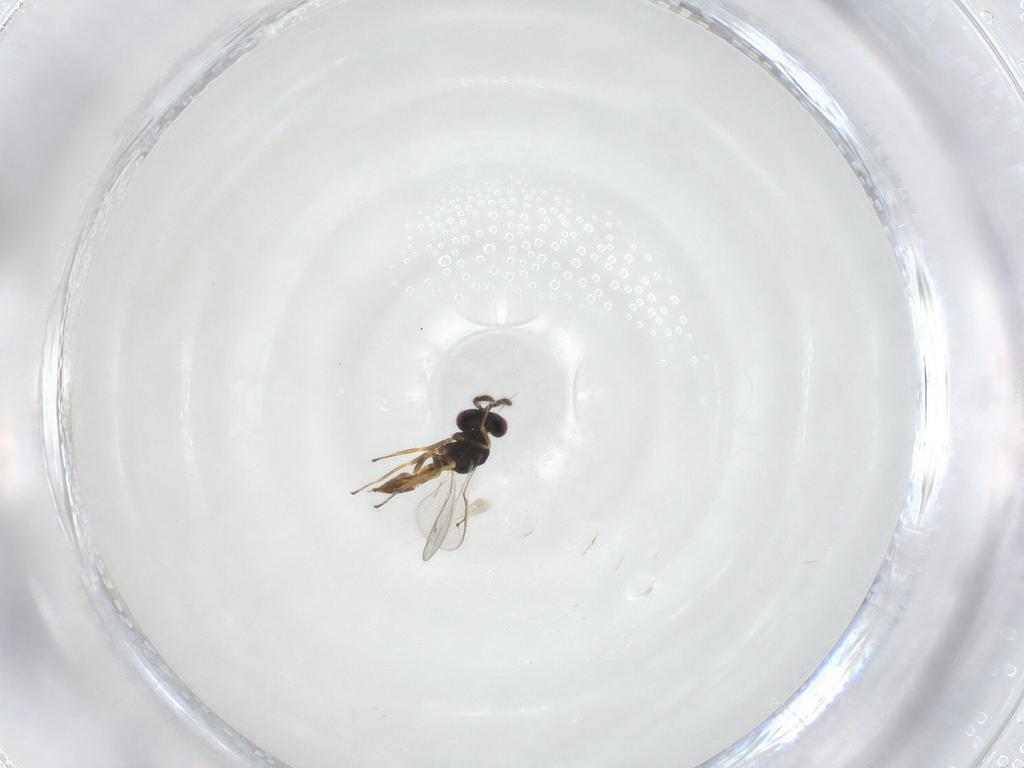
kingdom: Animalia
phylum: Arthropoda
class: Insecta
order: Hymenoptera
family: Pteromalidae
